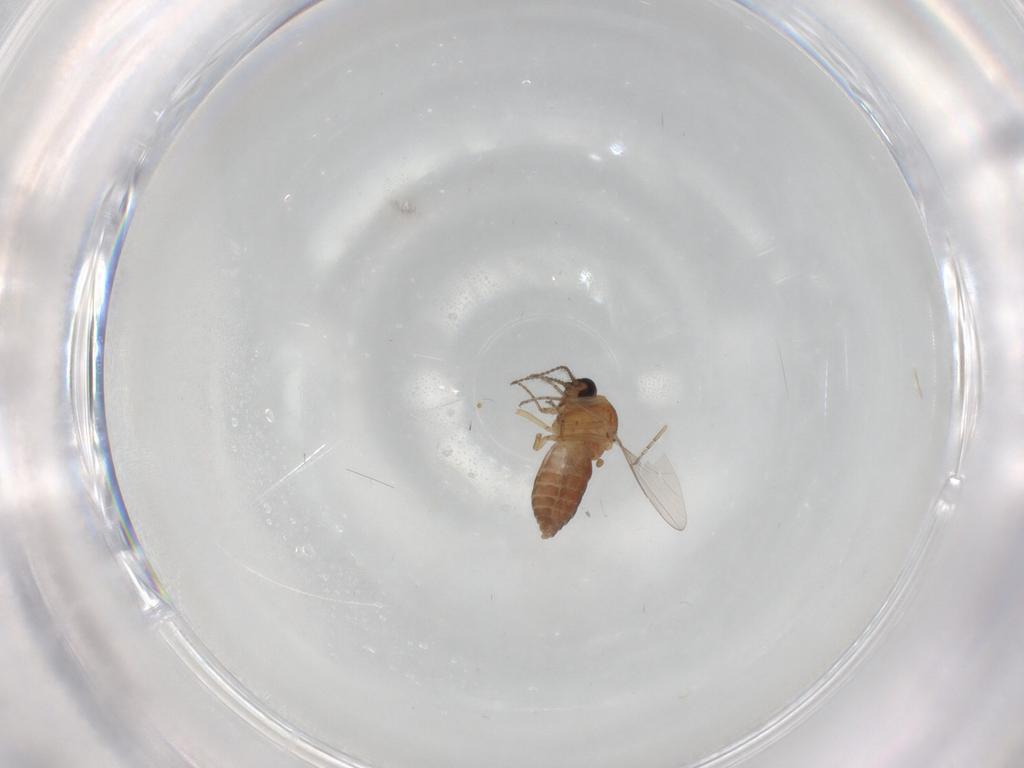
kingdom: Animalia
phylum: Arthropoda
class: Insecta
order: Diptera
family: Ceratopogonidae
